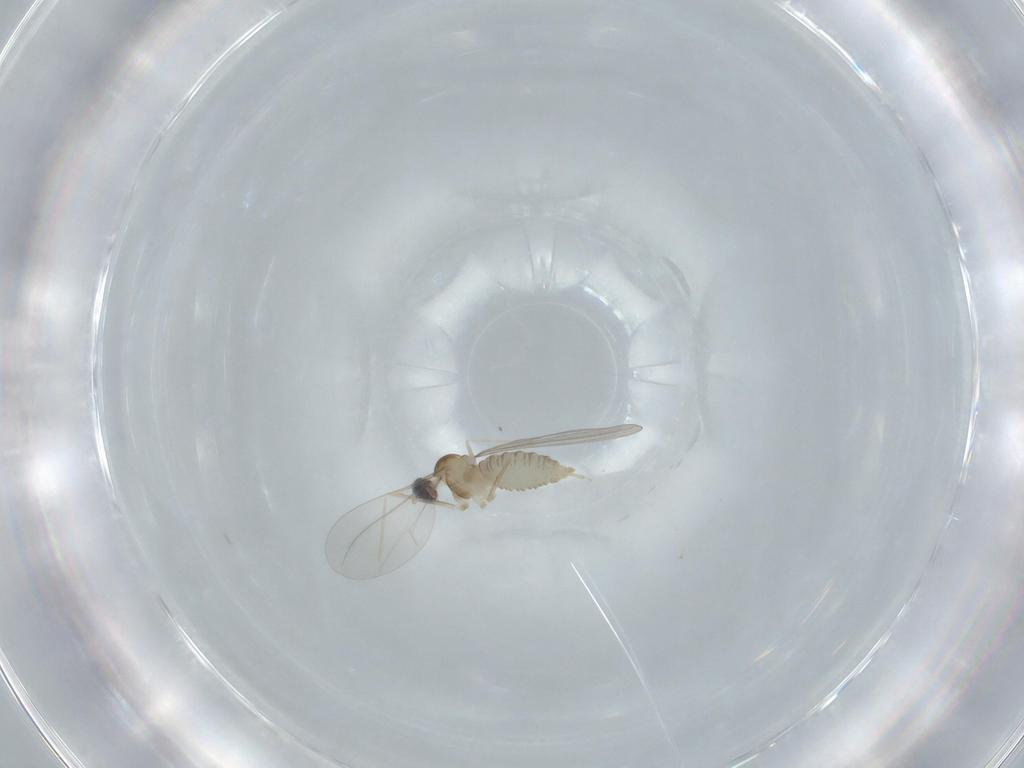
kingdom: Animalia
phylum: Arthropoda
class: Insecta
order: Diptera
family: Cecidomyiidae
